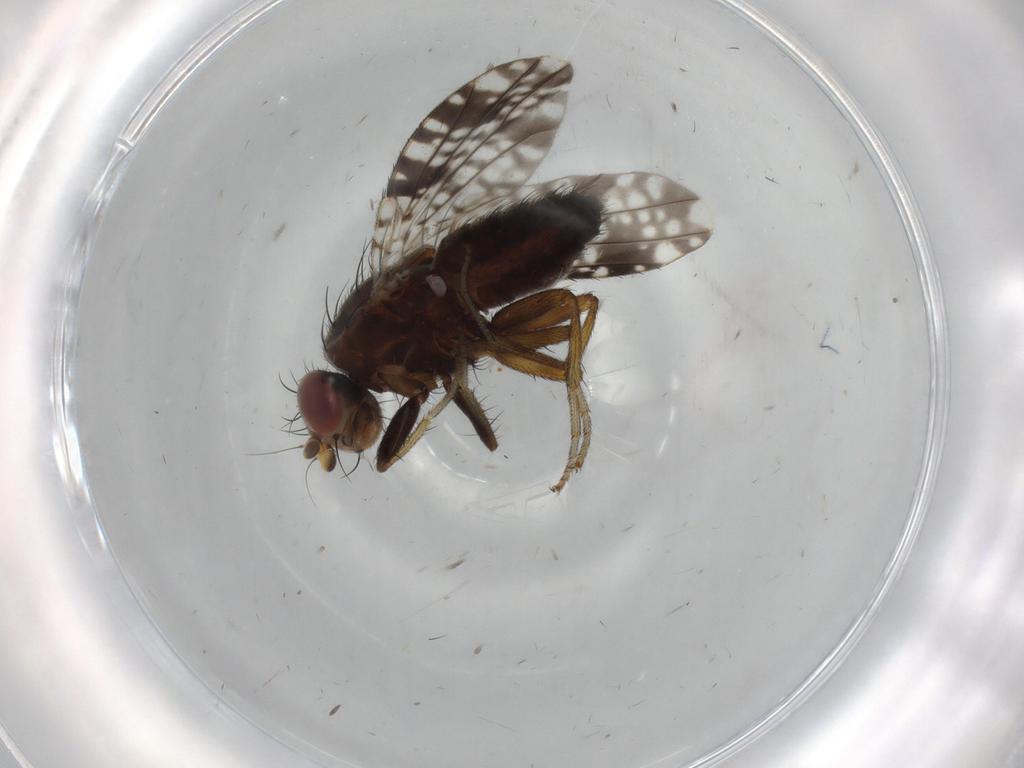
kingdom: Animalia
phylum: Arthropoda
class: Insecta
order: Diptera
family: Tephritidae
